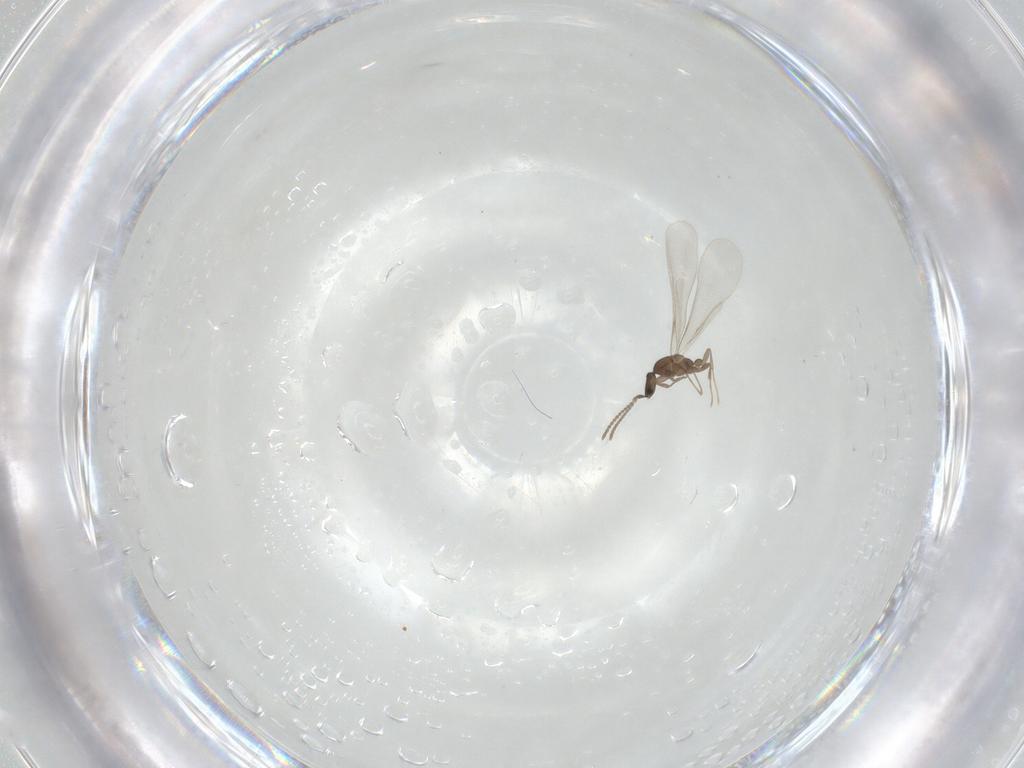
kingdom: Animalia
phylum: Arthropoda
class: Insecta
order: Hymenoptera
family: Formicidae
